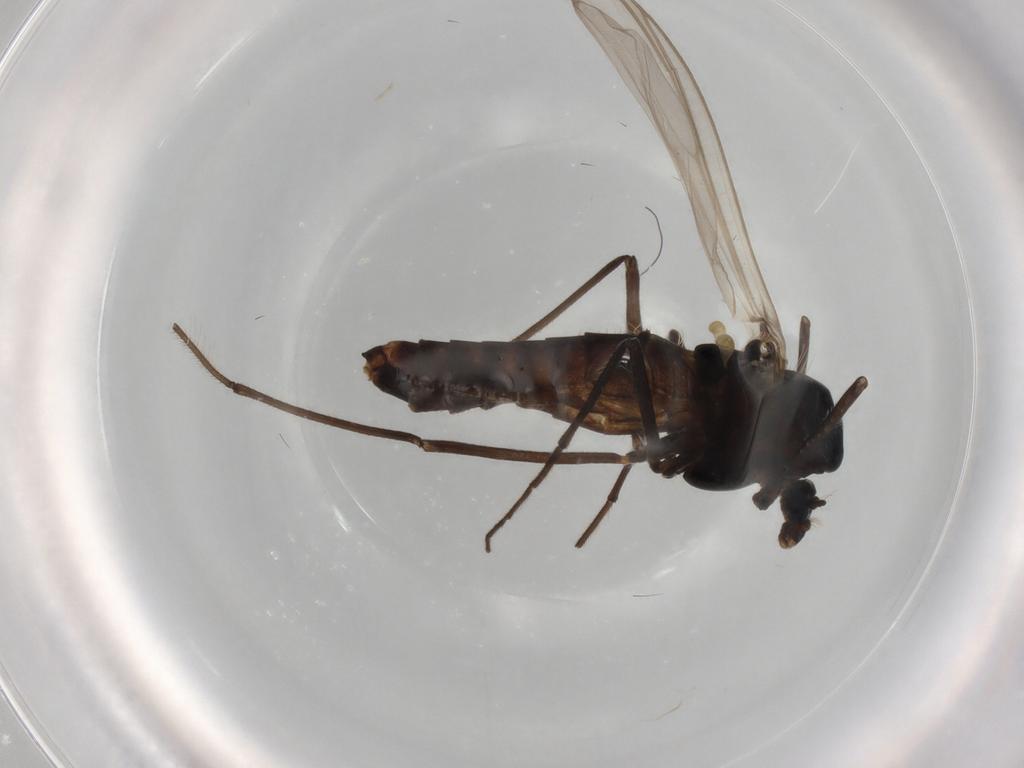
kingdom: Animalia
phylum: Arthropoda
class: Insecta
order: Diptera
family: Chironomidae
